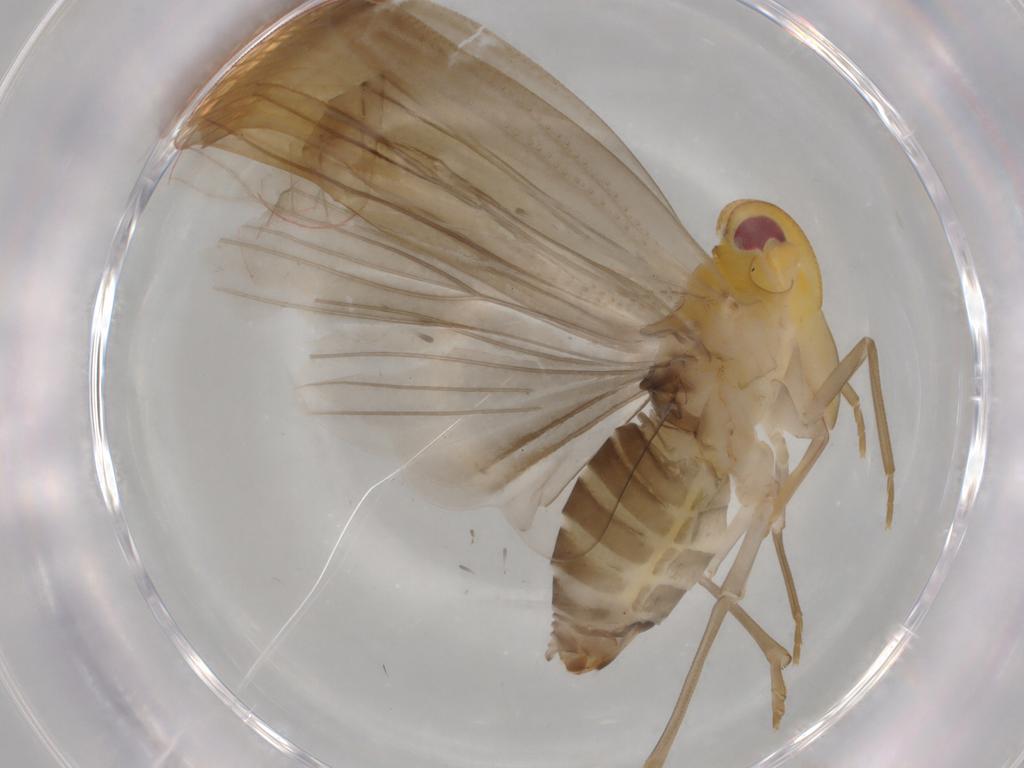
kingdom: Animalia
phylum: Arthropoda
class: Insecta
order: Hemiptera
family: Derbidae
